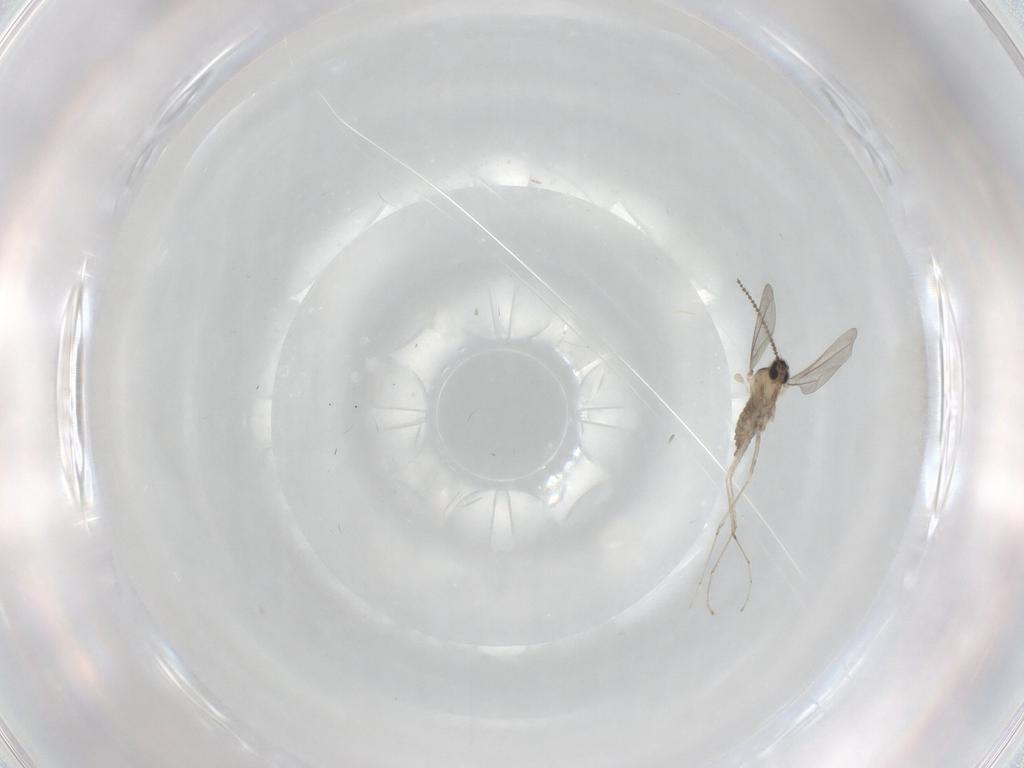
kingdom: Animalia
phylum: Arthropoda
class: Insecta
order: Diptera
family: Cecidomyiidae
